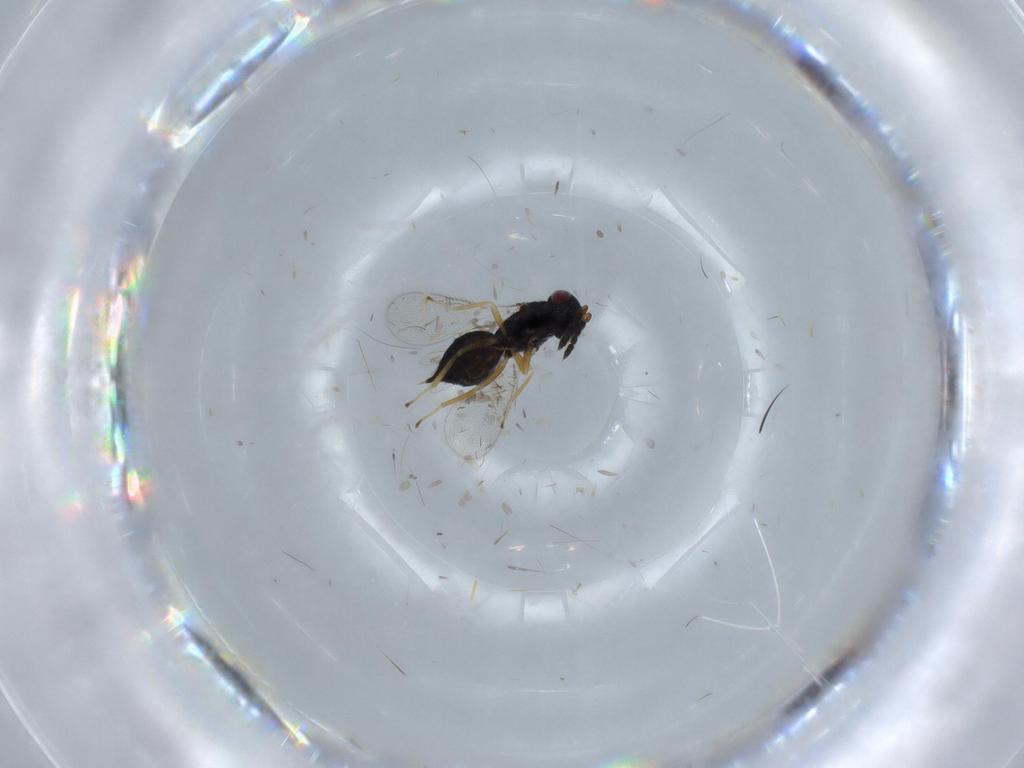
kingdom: Animalia
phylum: Arthropoda
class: Insecta
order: Hymenoptera
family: Eulophidae
